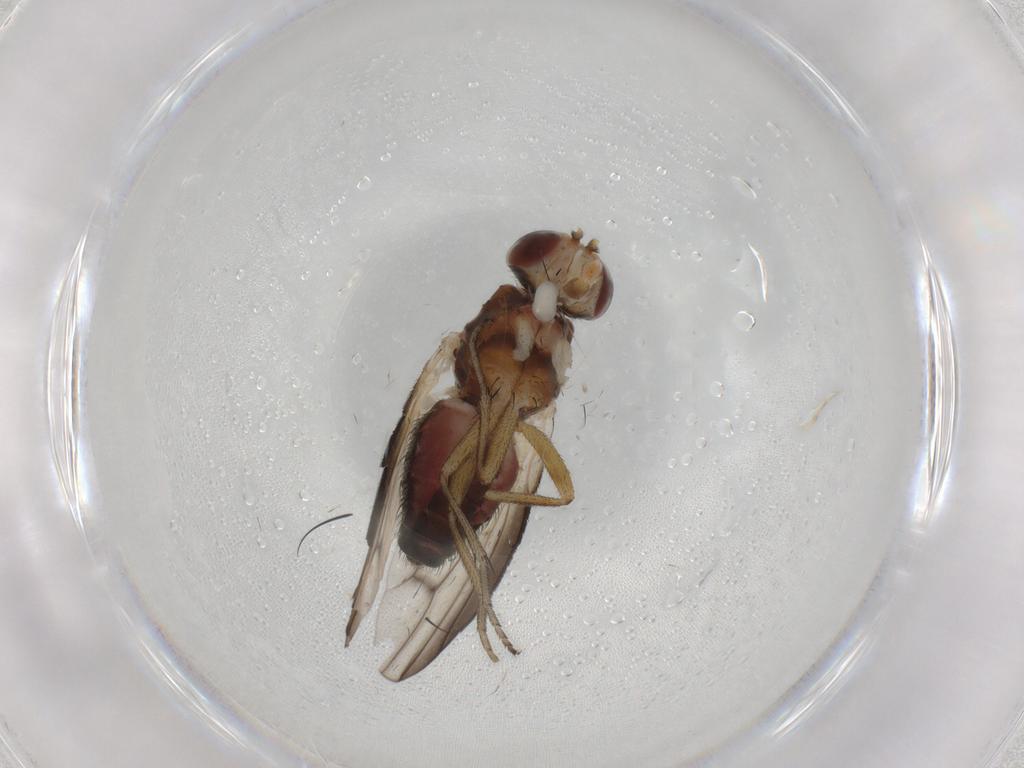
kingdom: Animalia
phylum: Arthropoda
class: Insecta
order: Diptera
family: Heleomyzidae
